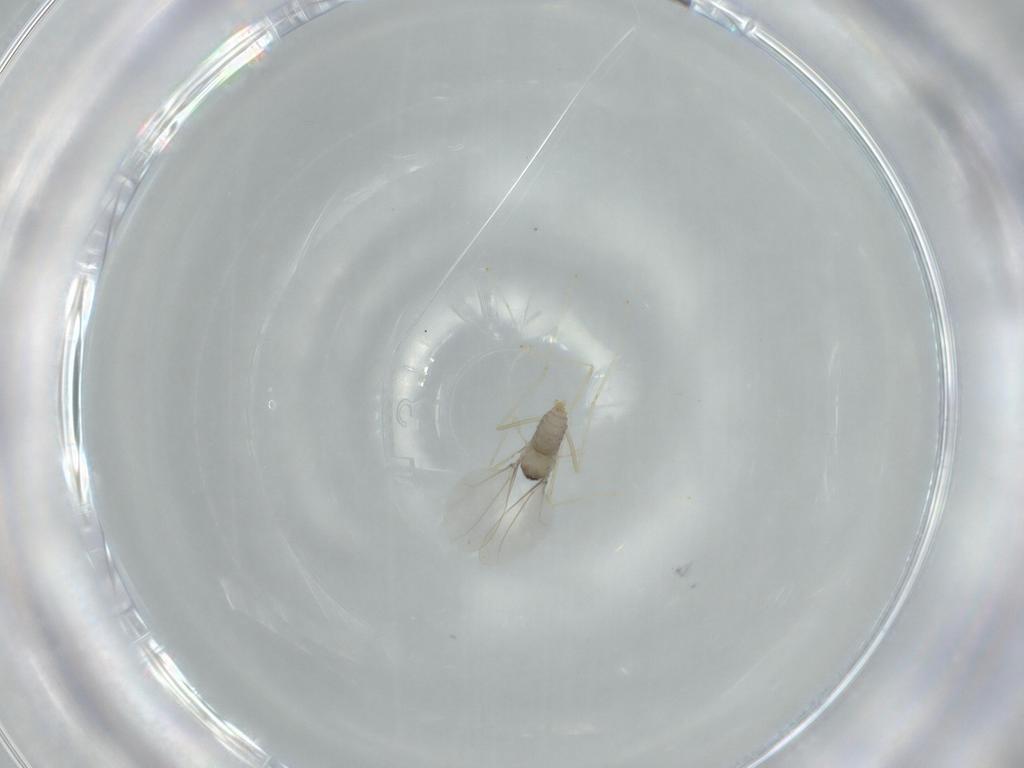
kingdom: Animalia
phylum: Arthropoda
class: Insecta
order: Diptera
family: Cecidomyiidae
